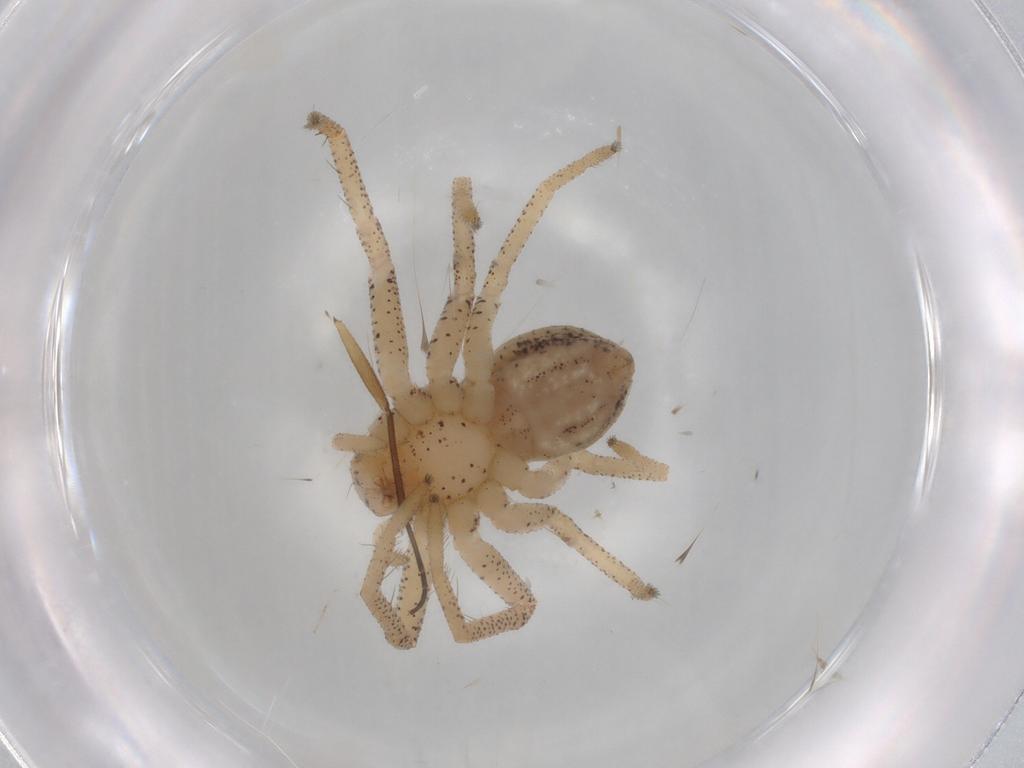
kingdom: Animalia
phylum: Arthropoda
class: Arachnida
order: Araneae
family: Philodromidae
